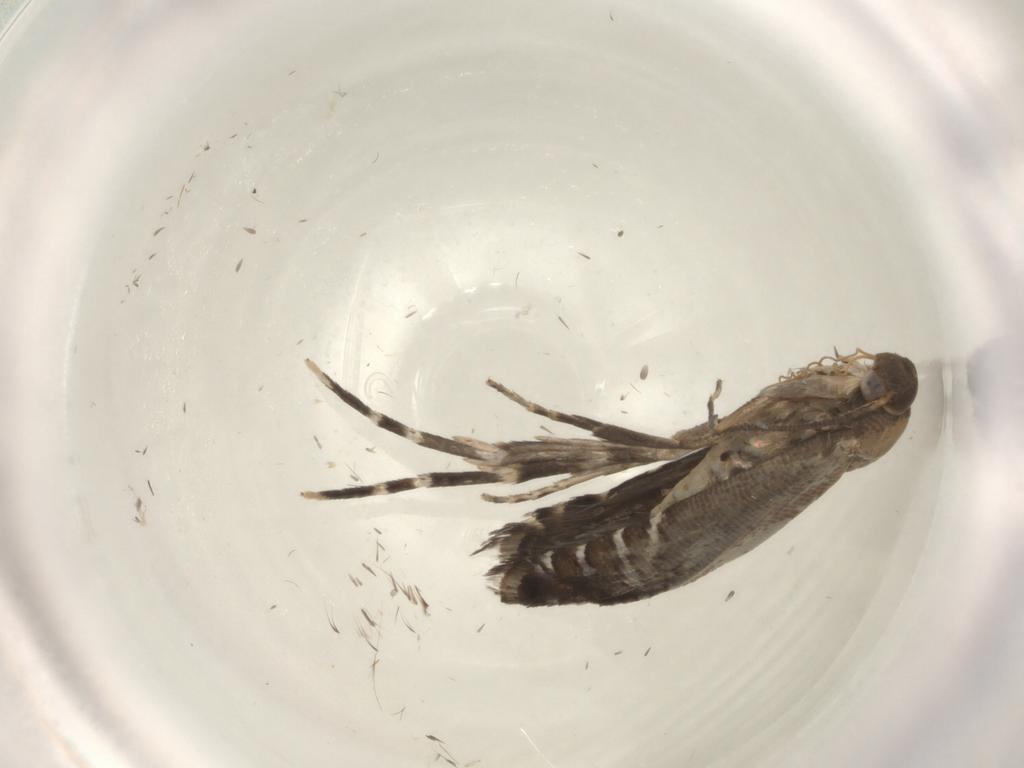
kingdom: Animalia
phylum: Arthropoda
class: Insecta
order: Lepidoptera
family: Glyphipterigidae
